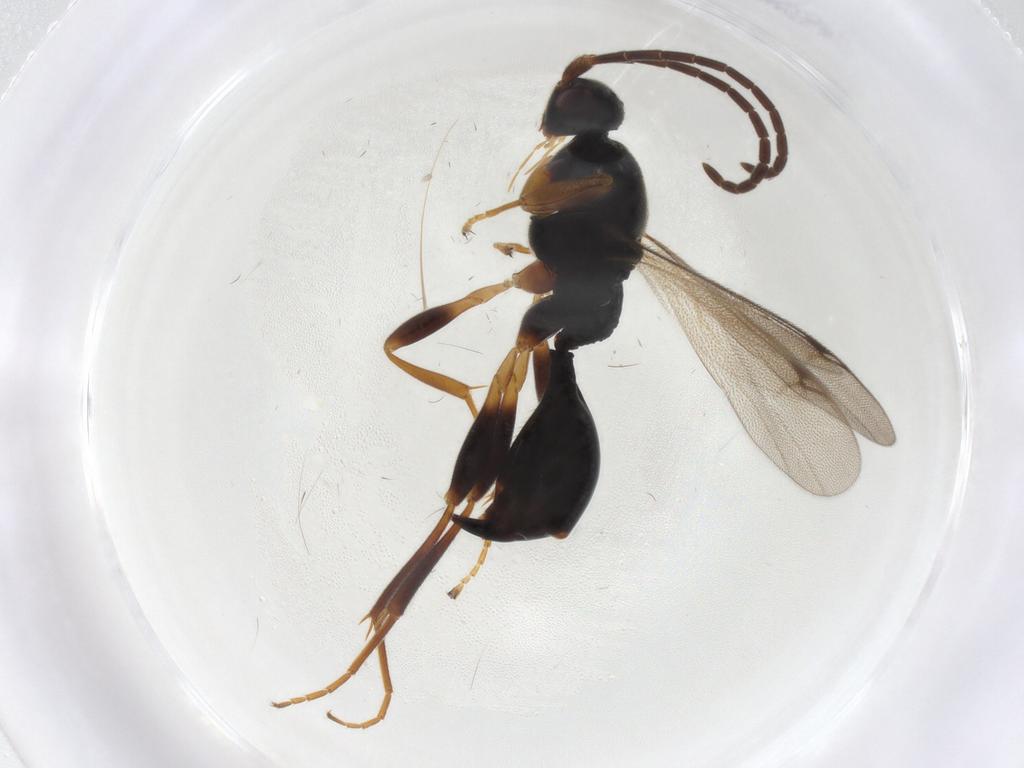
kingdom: Animalia
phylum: Arthropoda
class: Insecta
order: Hymenoptera
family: Proctotrupidae
